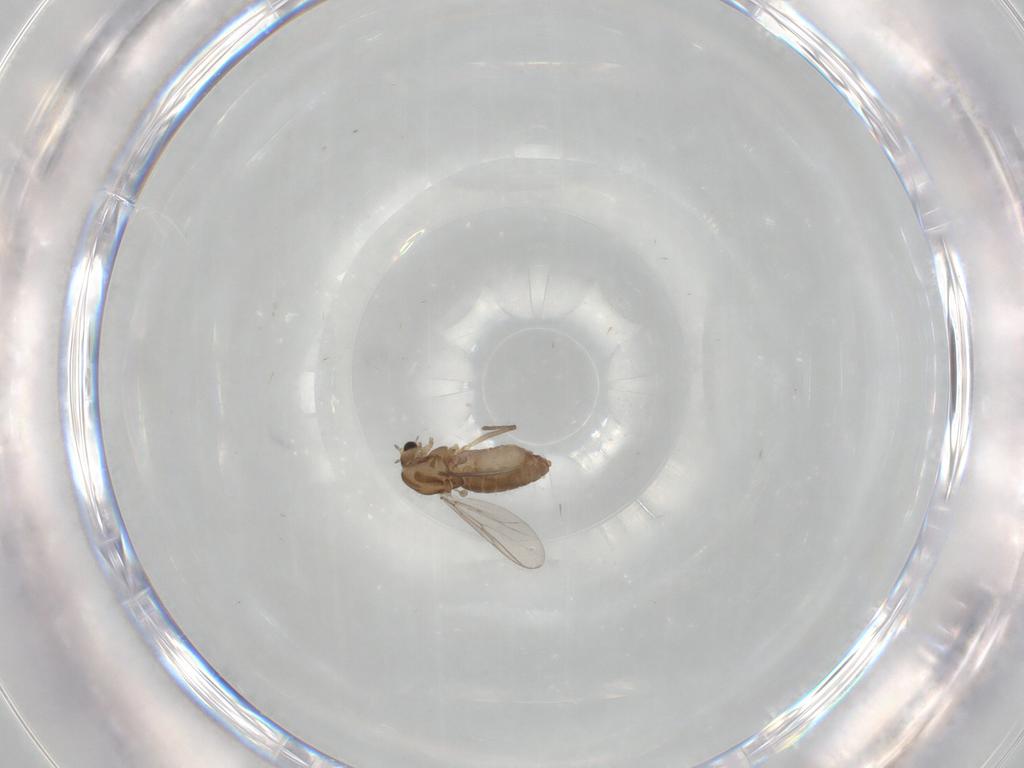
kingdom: Animalia
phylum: Arthropoda
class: Insecta
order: Diptera
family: Chironomidae
